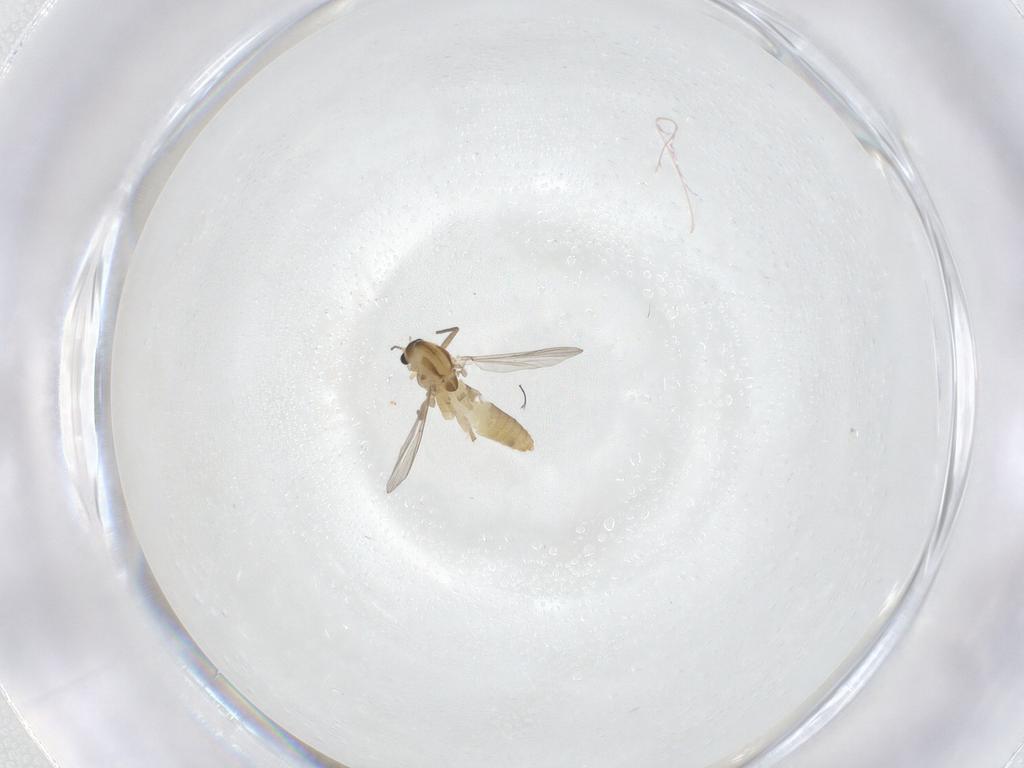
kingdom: Animalia
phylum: Arthropoda
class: Insecta
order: Diptera
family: Chironomidae
